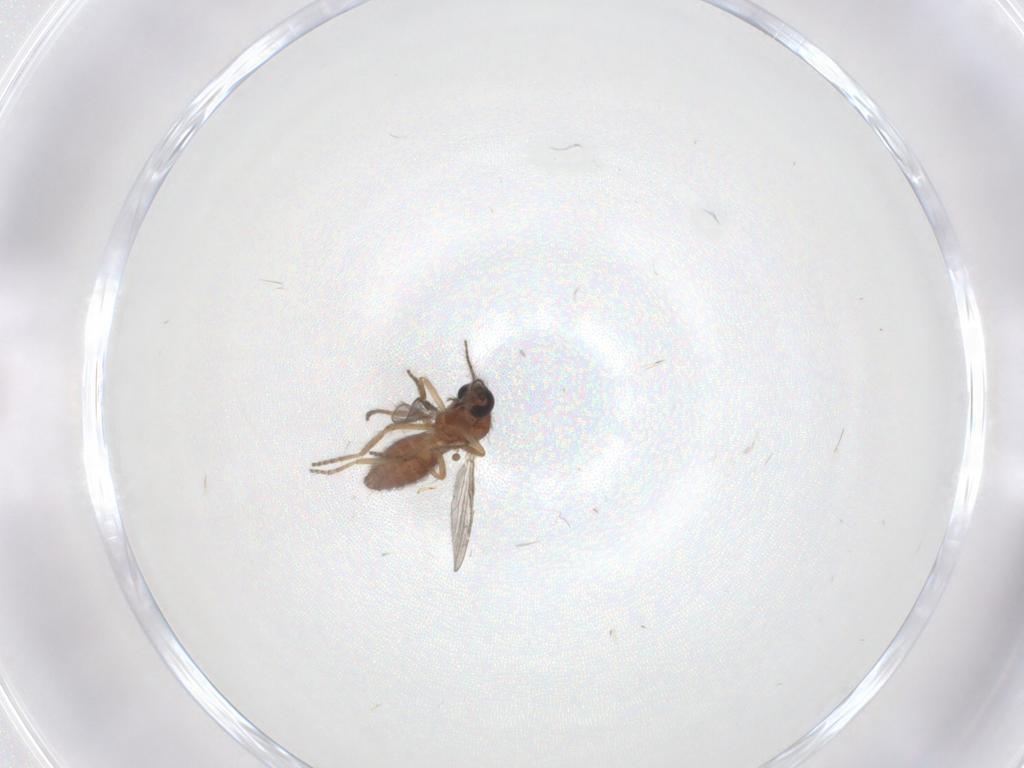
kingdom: Animalia
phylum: Arthropoda
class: Insecta
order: Diptera
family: Ceratopogonidae
